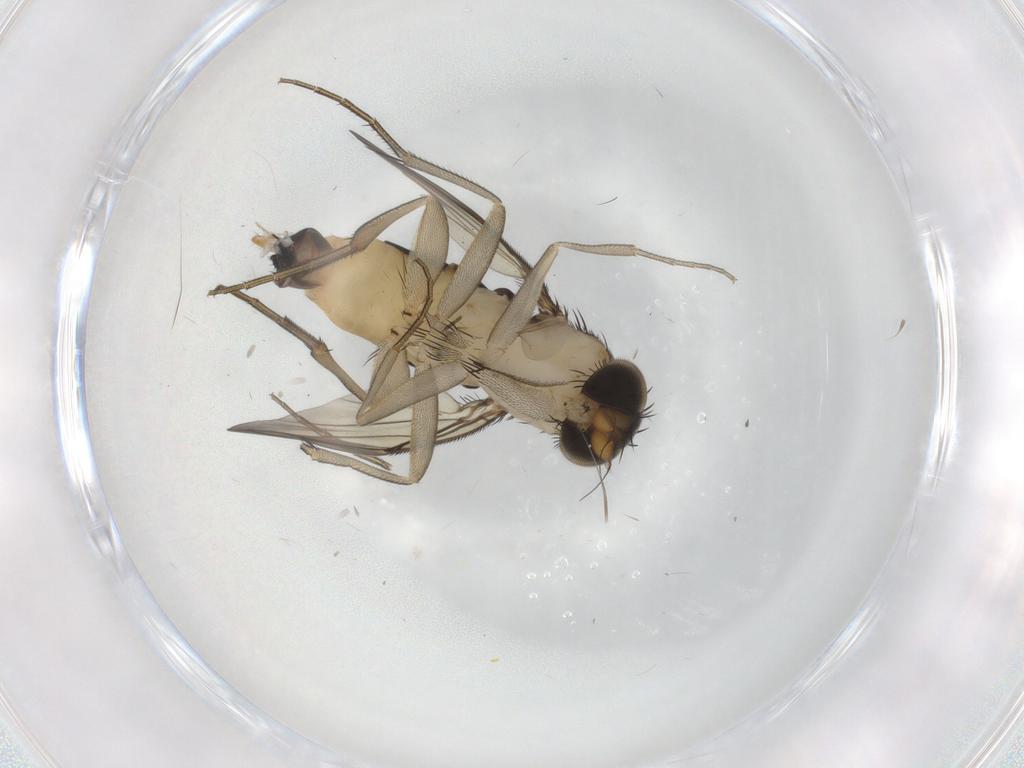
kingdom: Animalia
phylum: Arthropoda
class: Insecta
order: Diptera
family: Phoridae
